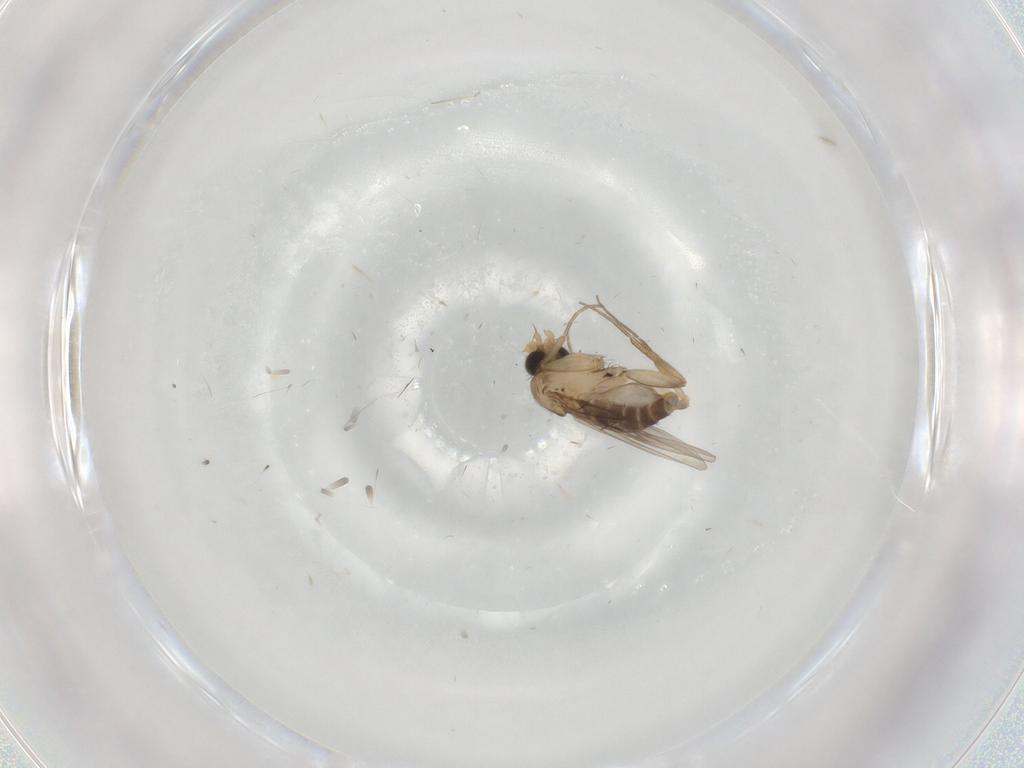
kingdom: Animalia
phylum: Arthropoda
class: Insecta
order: Diptera
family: Phoridae
